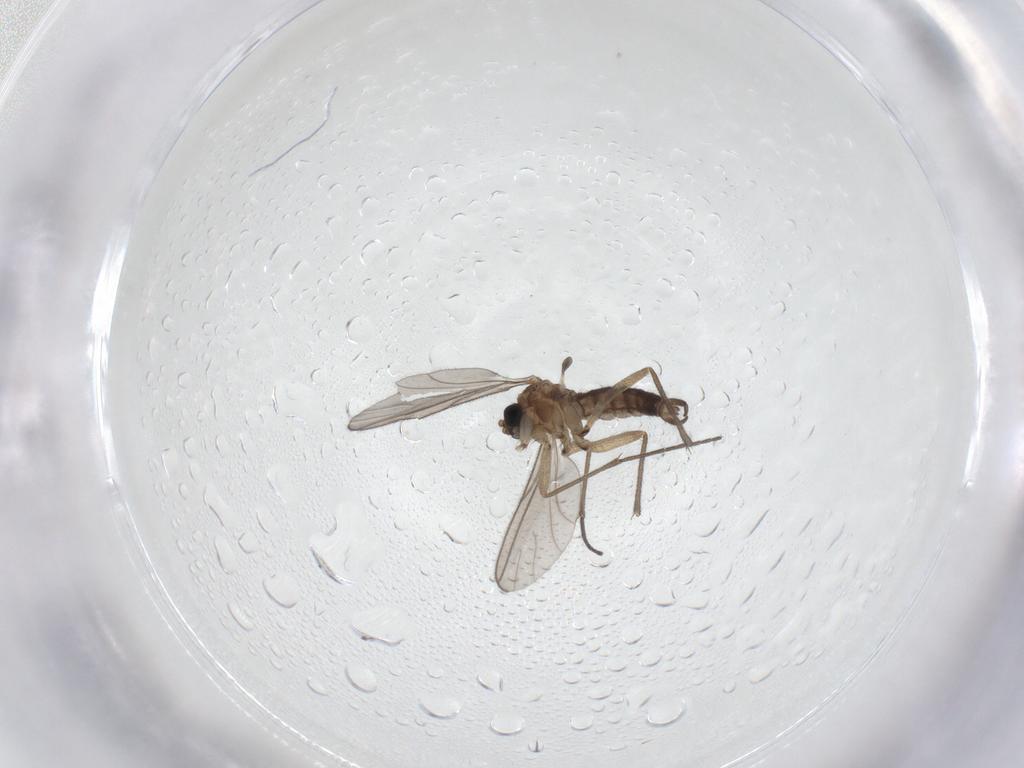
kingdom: Animalia
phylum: Arthropoda
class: Insecta
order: Diptera
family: Sciaridae
